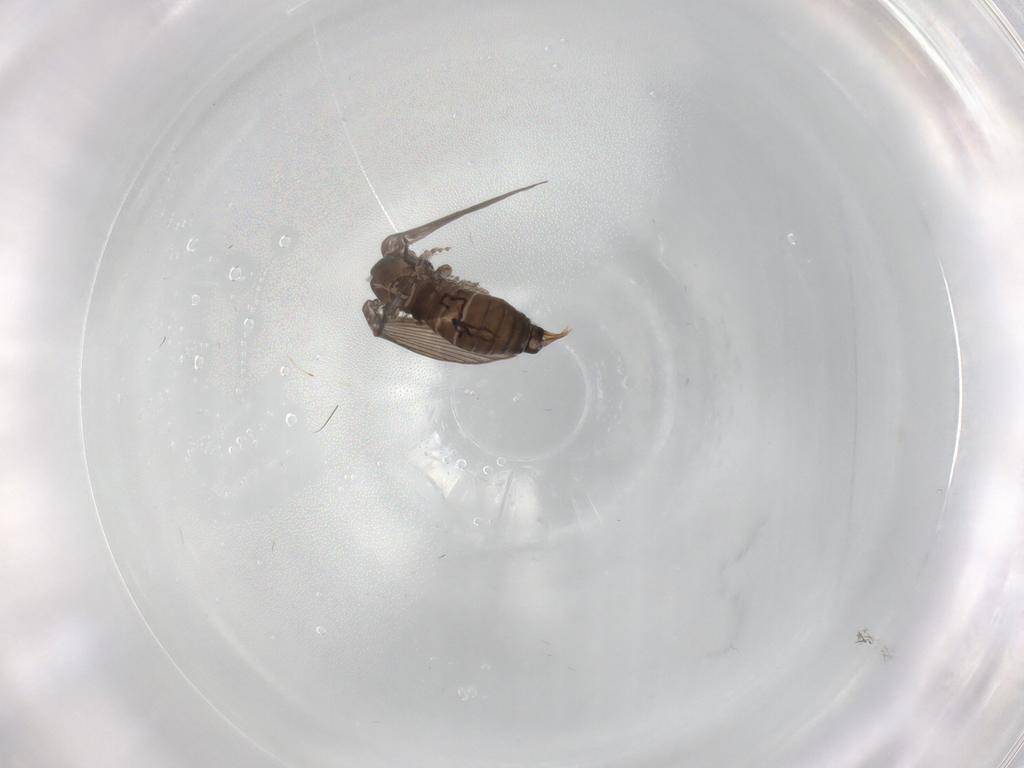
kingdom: Animalia
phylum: Arthropoda
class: Insecta
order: Diptera
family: Psychodidae
